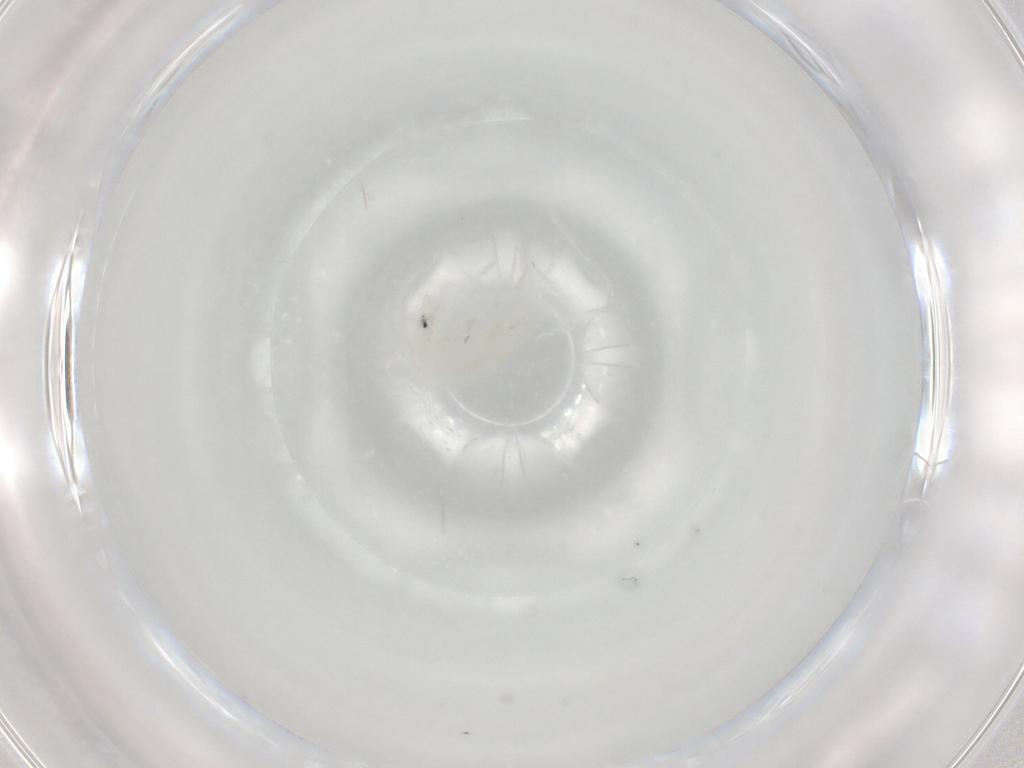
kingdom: Animalia
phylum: Arthropoda
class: Collembola
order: Entomobryomorpha
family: Entomobryidae
